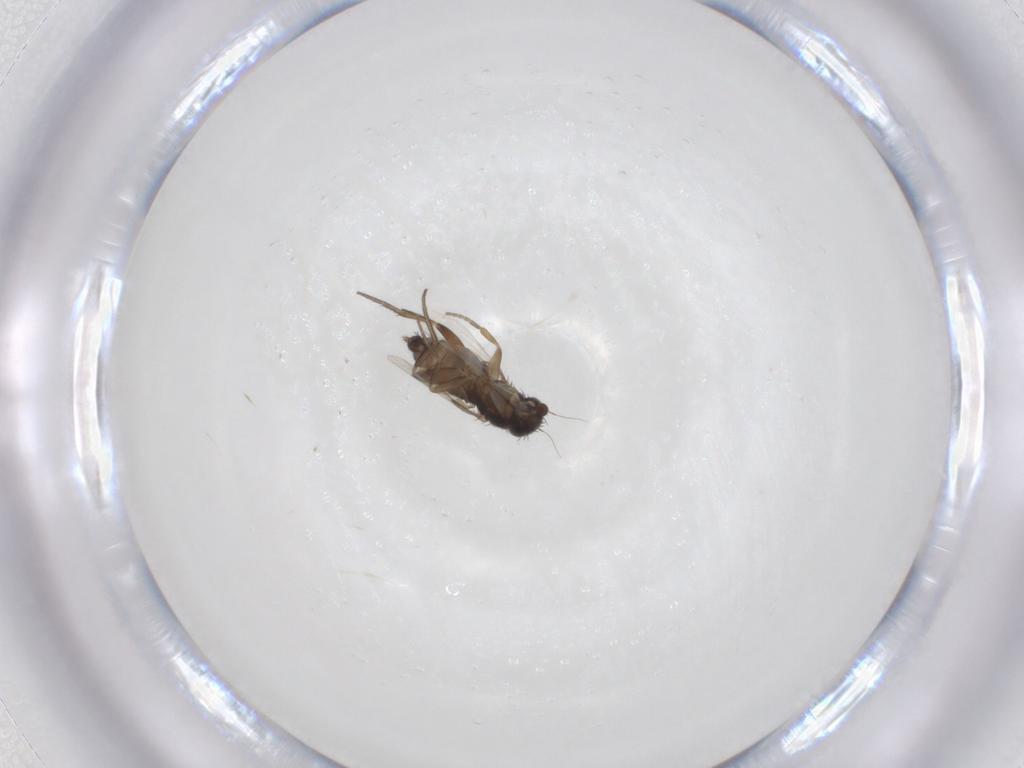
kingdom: Animalia
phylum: Arthropoda
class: Insecta
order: Diptera
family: Phoridae
